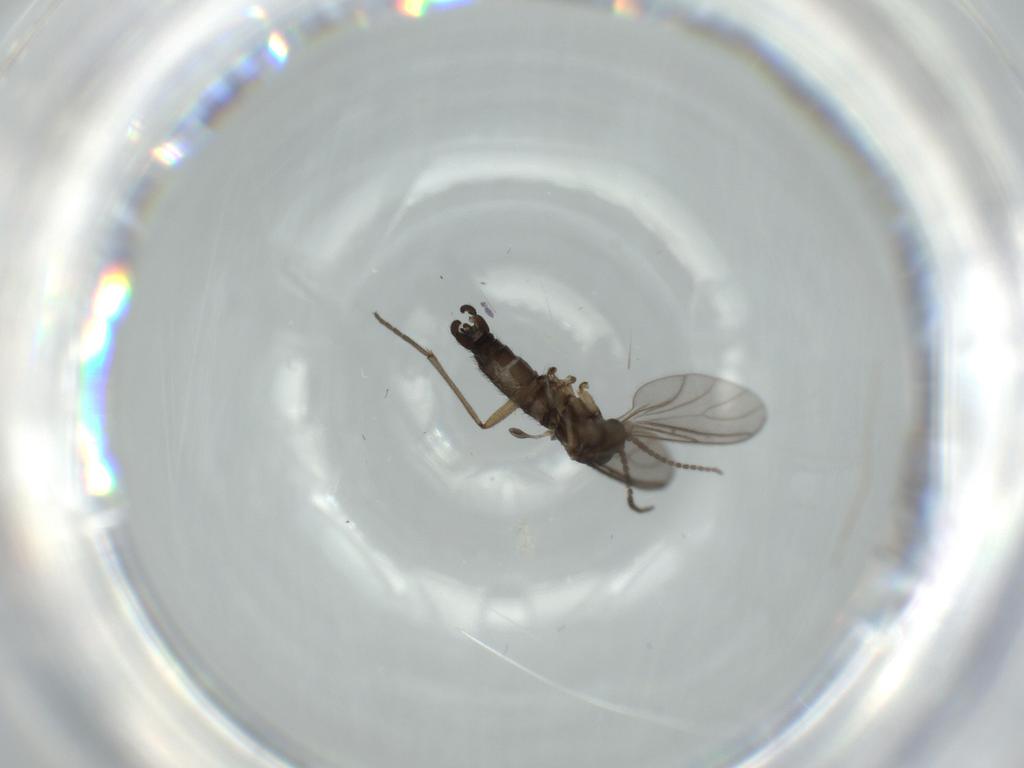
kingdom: Animalia
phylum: Arthropoda
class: Insecta
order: Diptera
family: Sciaridae
